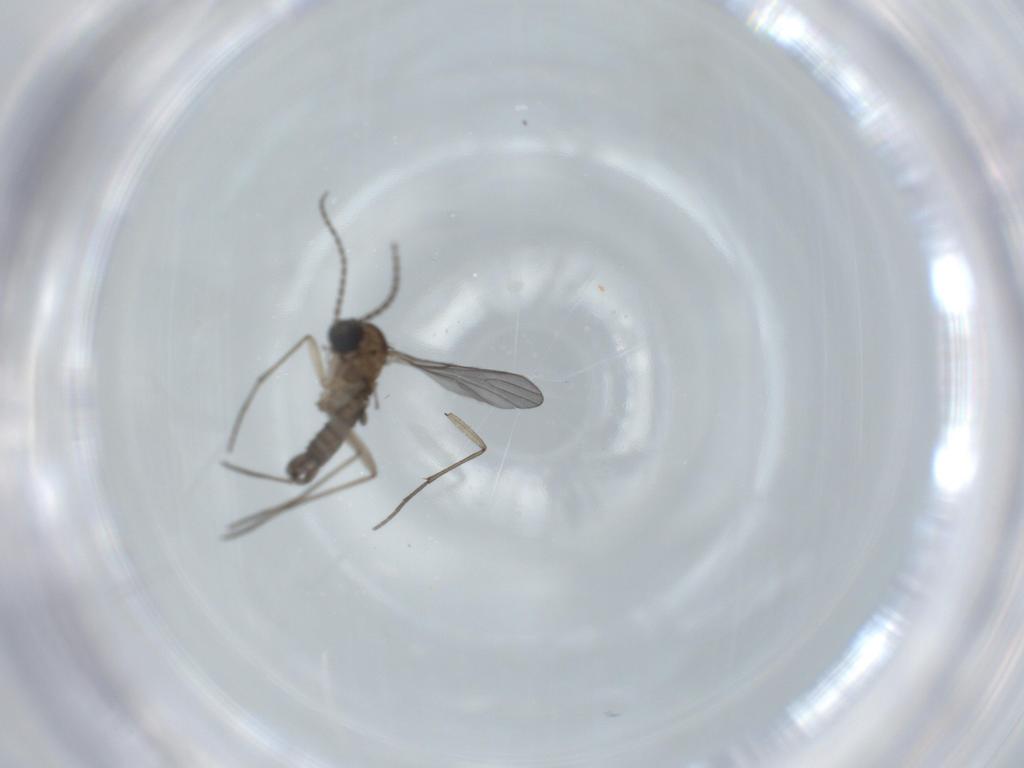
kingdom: Animalia
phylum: Arthropoda
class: Insecta
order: Diptera
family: Sciaridae
